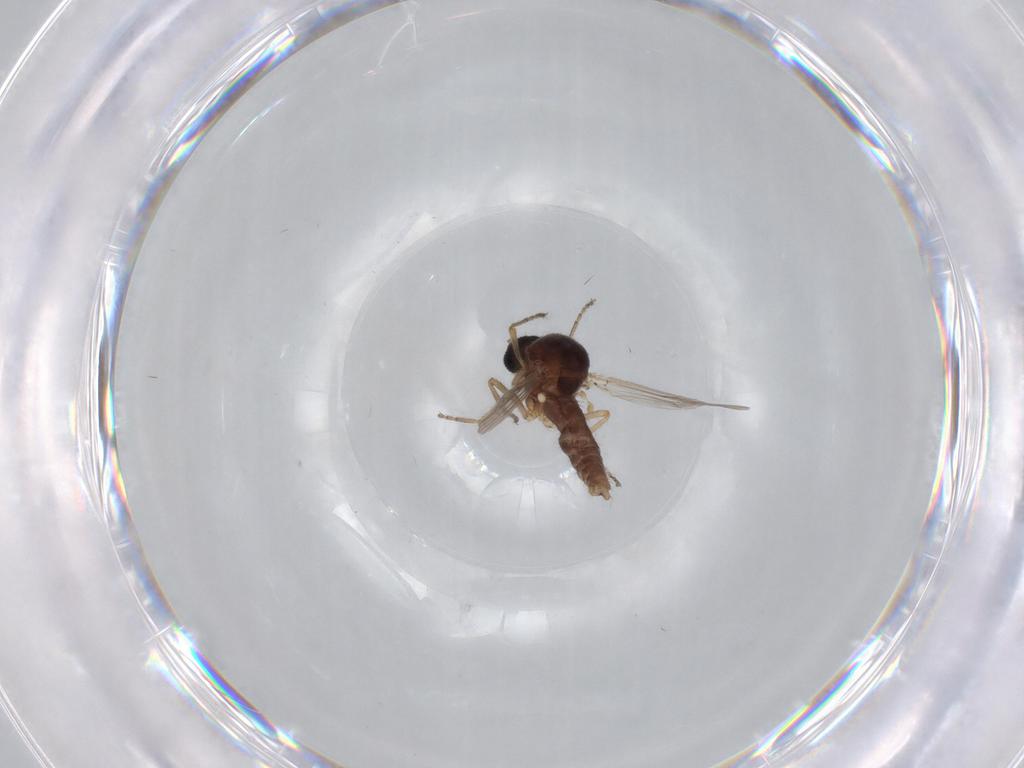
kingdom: Animalia
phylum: Arthropoda
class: Insecta
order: Diptera
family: Ceratopogonidae
